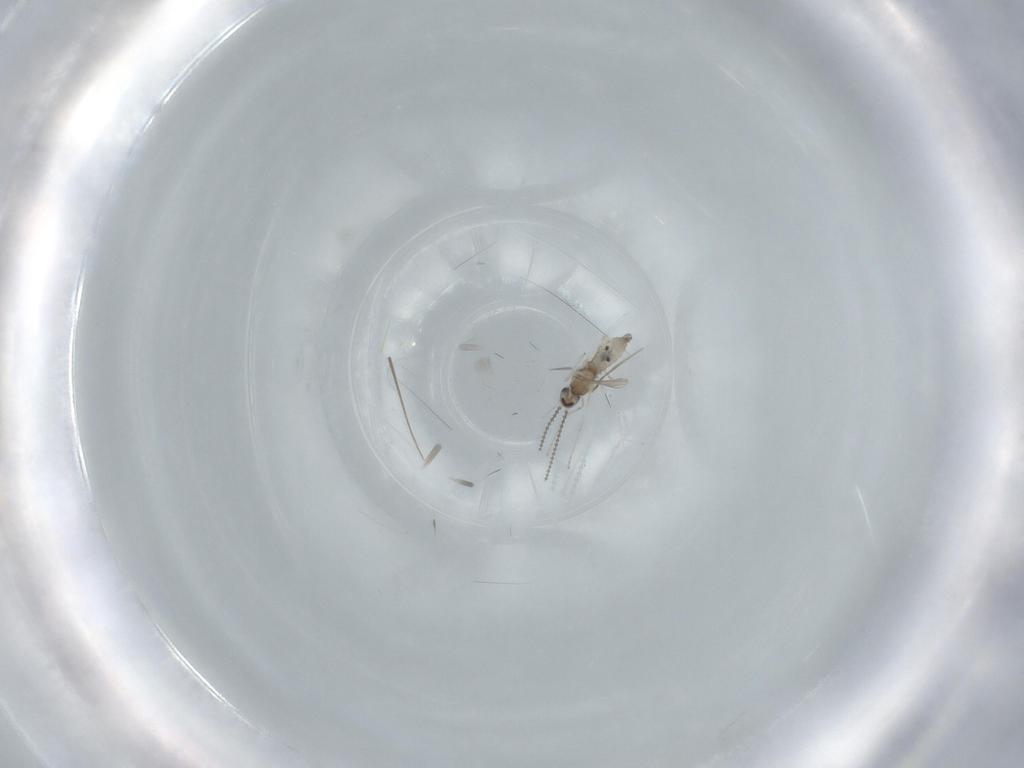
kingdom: Animalia
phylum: Arthropoda
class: Insecta
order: Diptera
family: Cecidomyiidae
